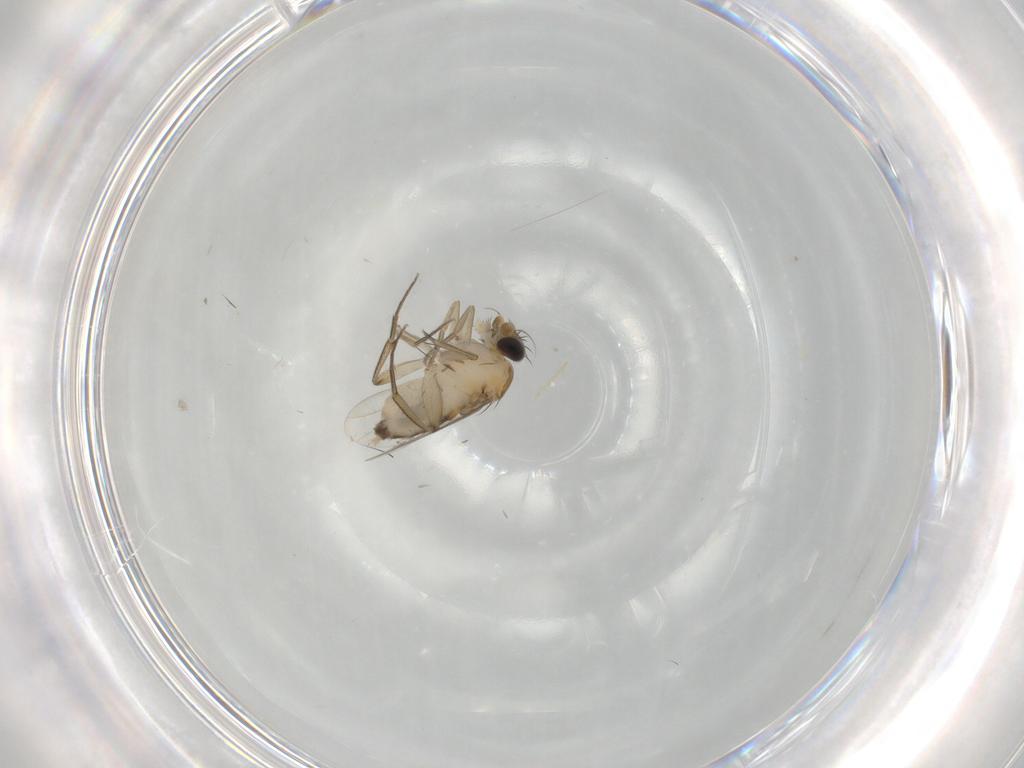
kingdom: Animalia
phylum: Arthropoda
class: Insecta
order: Diptera
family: Phoridae
